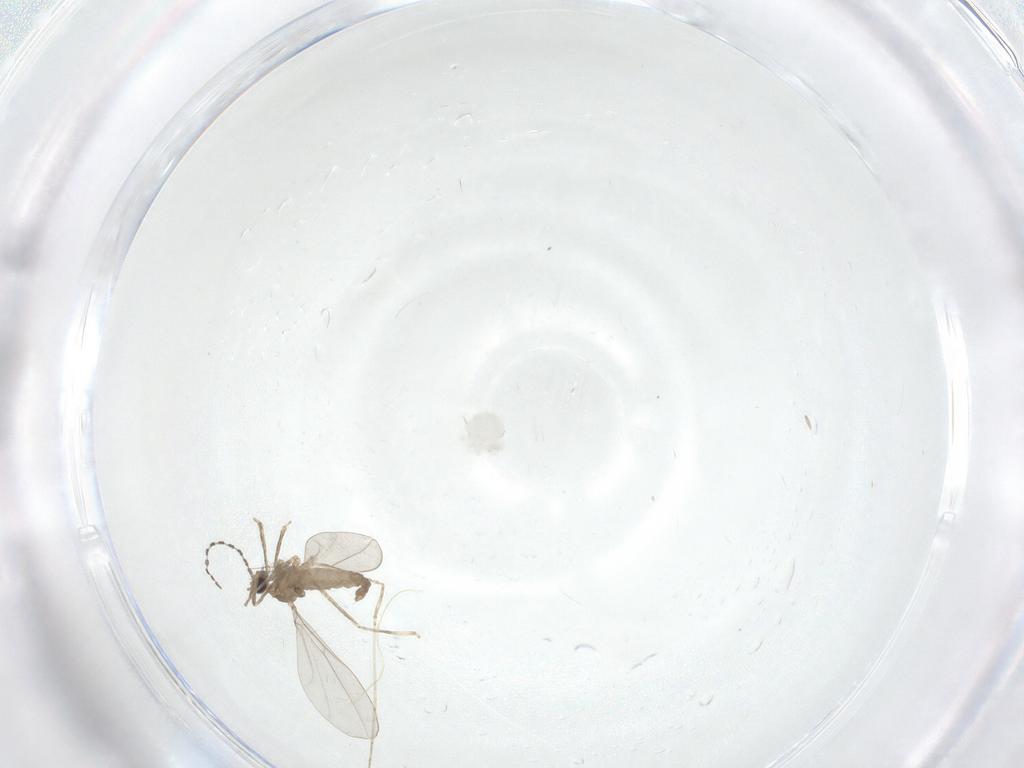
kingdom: Animalia
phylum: Arthropoda
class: Insecta
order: Diptera
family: Cecidomyiidae
